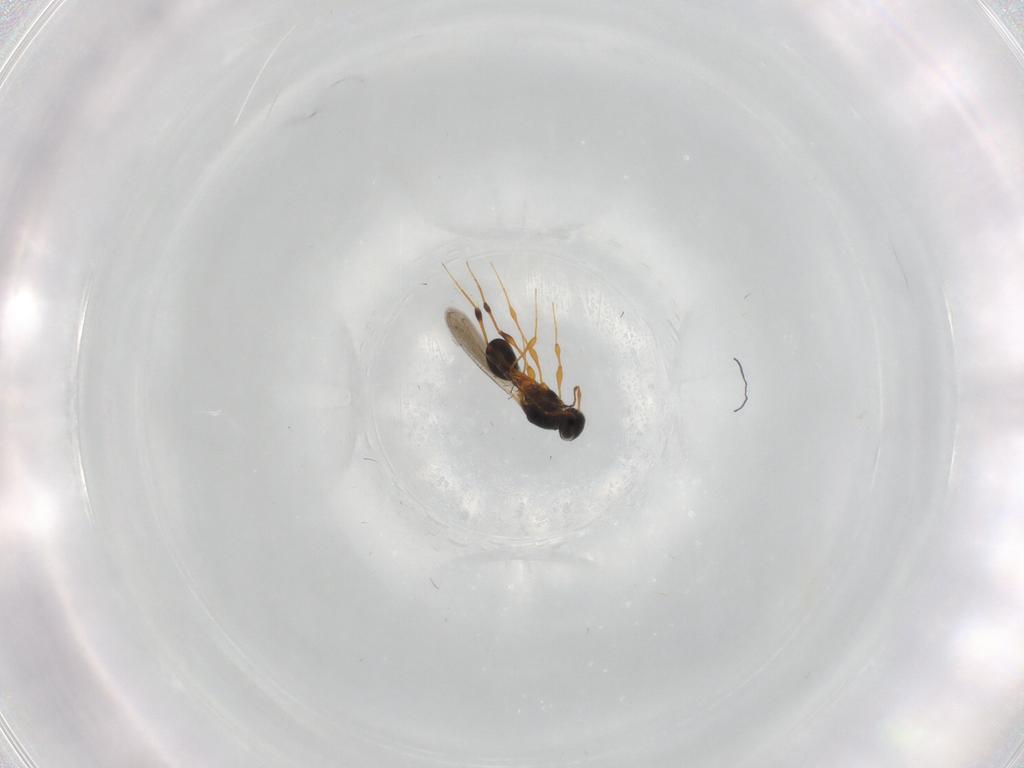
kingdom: Animalia
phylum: Arthropoda
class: Insecta
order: Hymenoptera
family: Platygastridae
